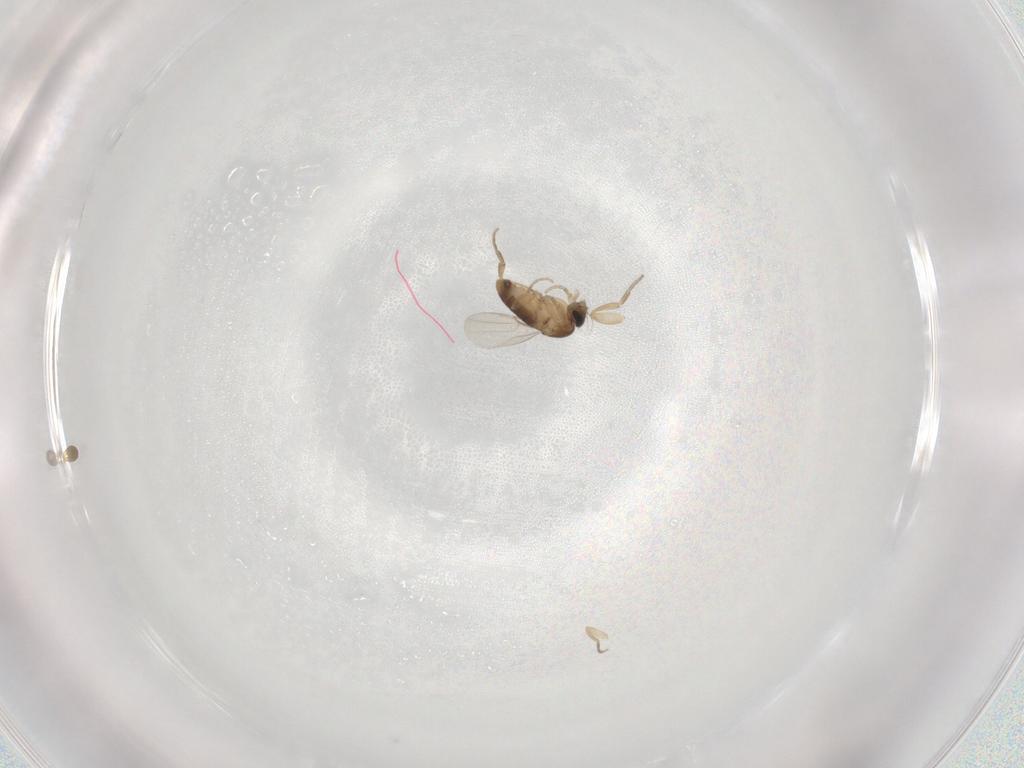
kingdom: Animalia
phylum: Arthropoda
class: Insecta
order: Diptera
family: Phoridae
